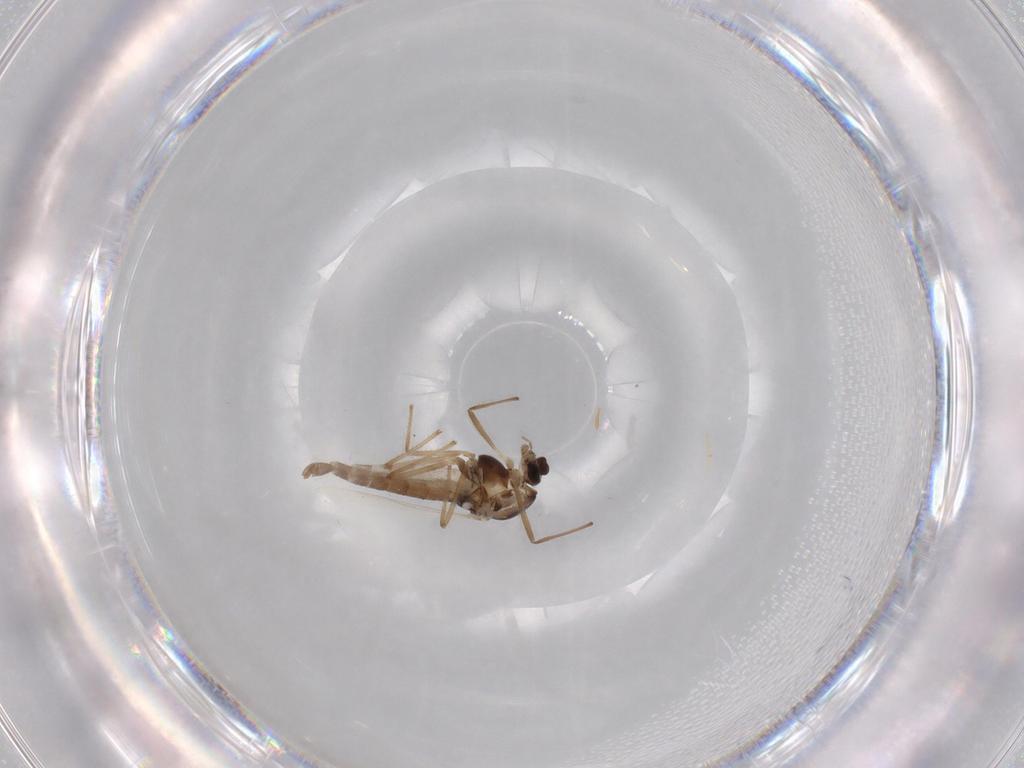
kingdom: Animalia
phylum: Arthropoda
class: Insecta
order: Diptera
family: Chironomidae
